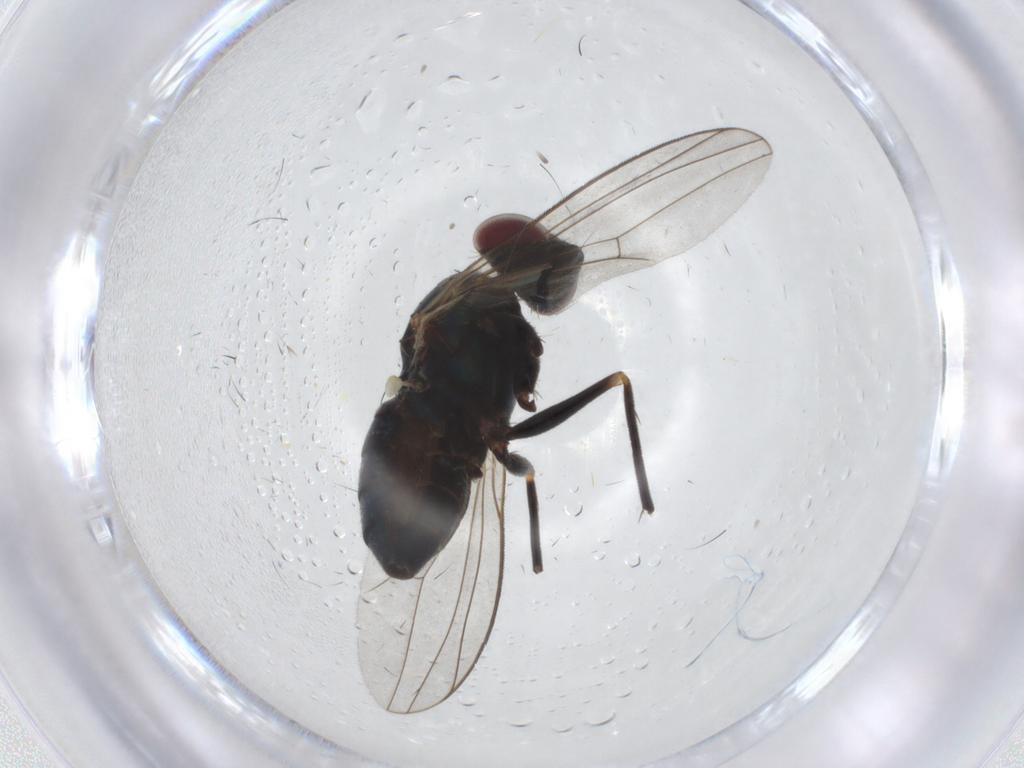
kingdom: Animalia
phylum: Arthropoda
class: Insecta
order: Diptera
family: Dolichopodidae
